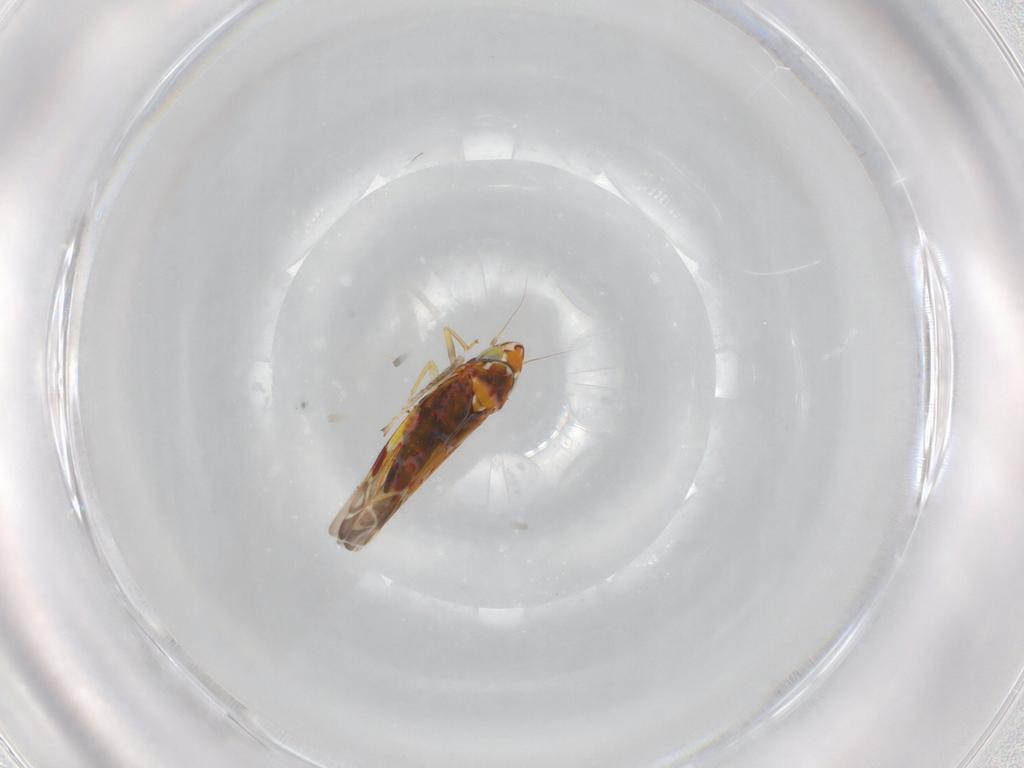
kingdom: Animalia
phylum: Arthropoda
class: Insecta
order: Hemiptera
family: Cicadellidae
